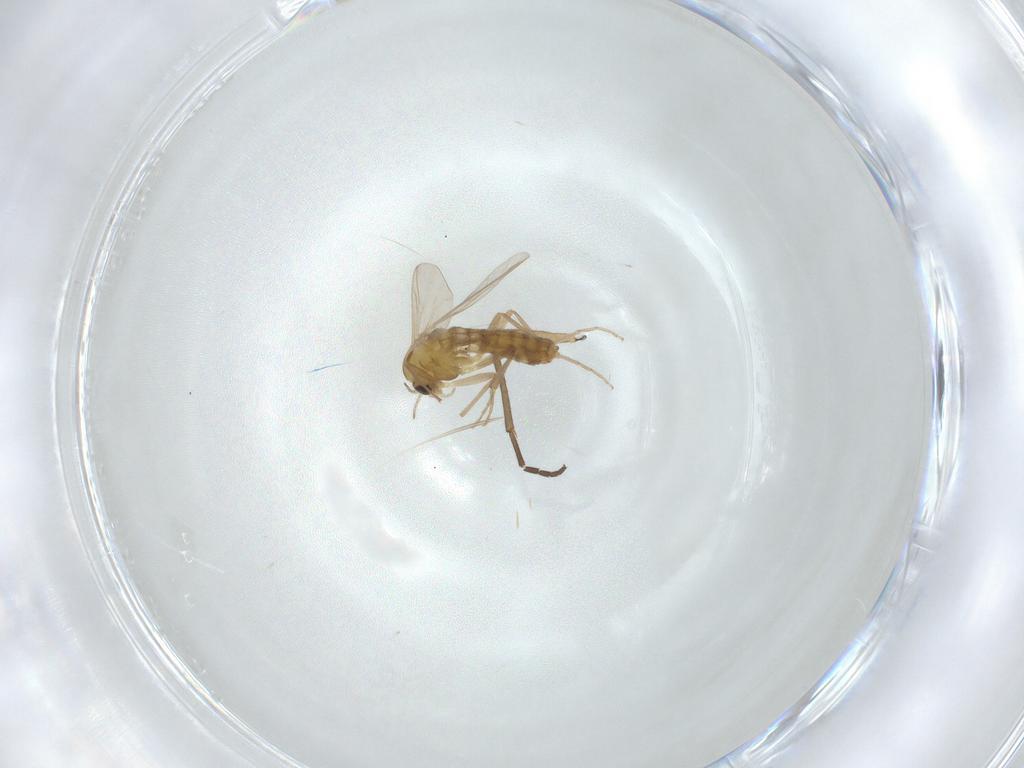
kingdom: Animalia
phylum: Arthropoda
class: Insecta
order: Diptera
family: Chironomidae
